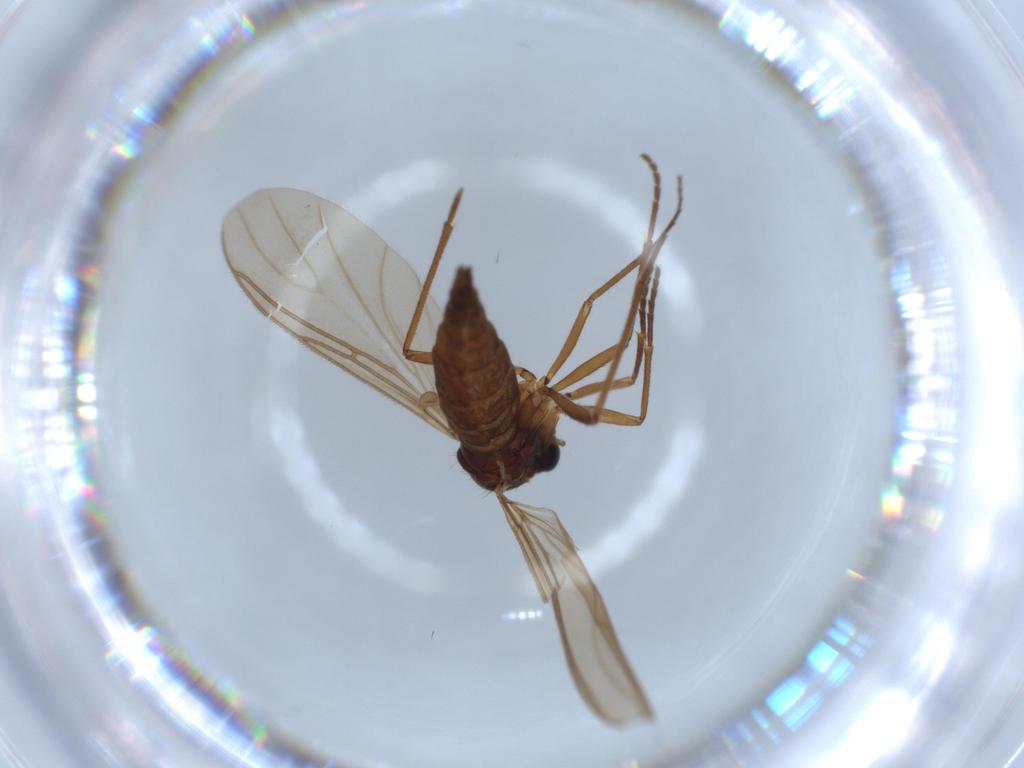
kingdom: Animalia
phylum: Arthropoda
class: Insecta
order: Diptera
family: Sciaridae
